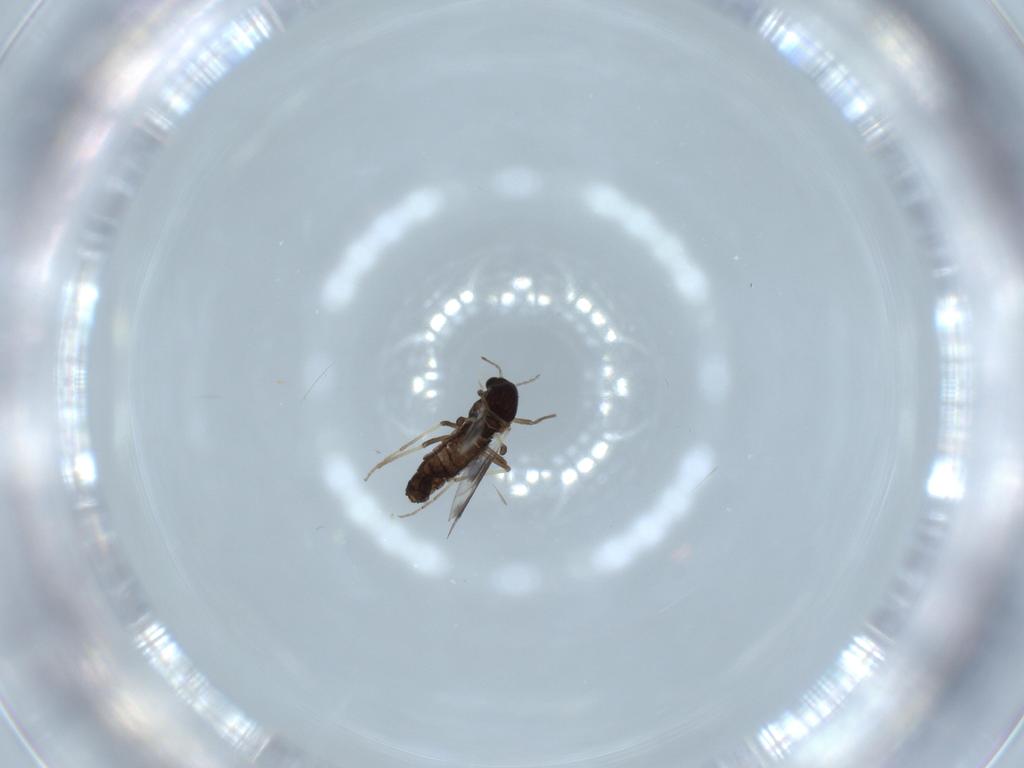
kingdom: Animalia
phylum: Arthropoda
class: Insecta
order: Diptera
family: Chironomidae
